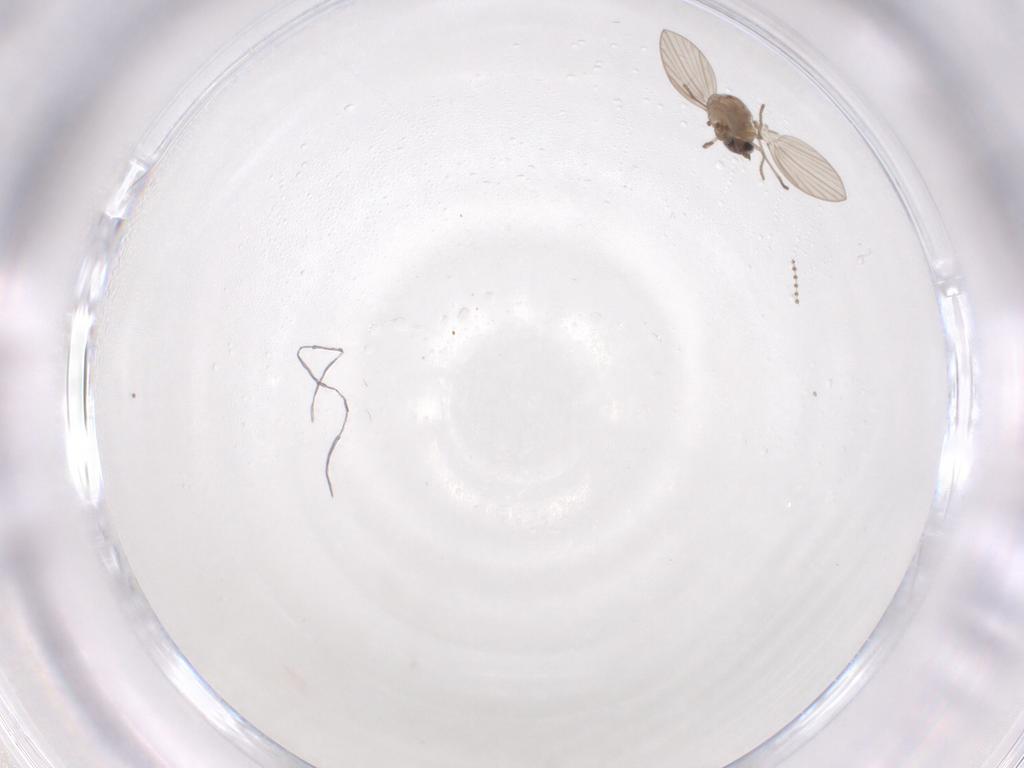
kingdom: Animalia
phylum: Arthropoda
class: Insecta
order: Diptera
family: Psychodidae
